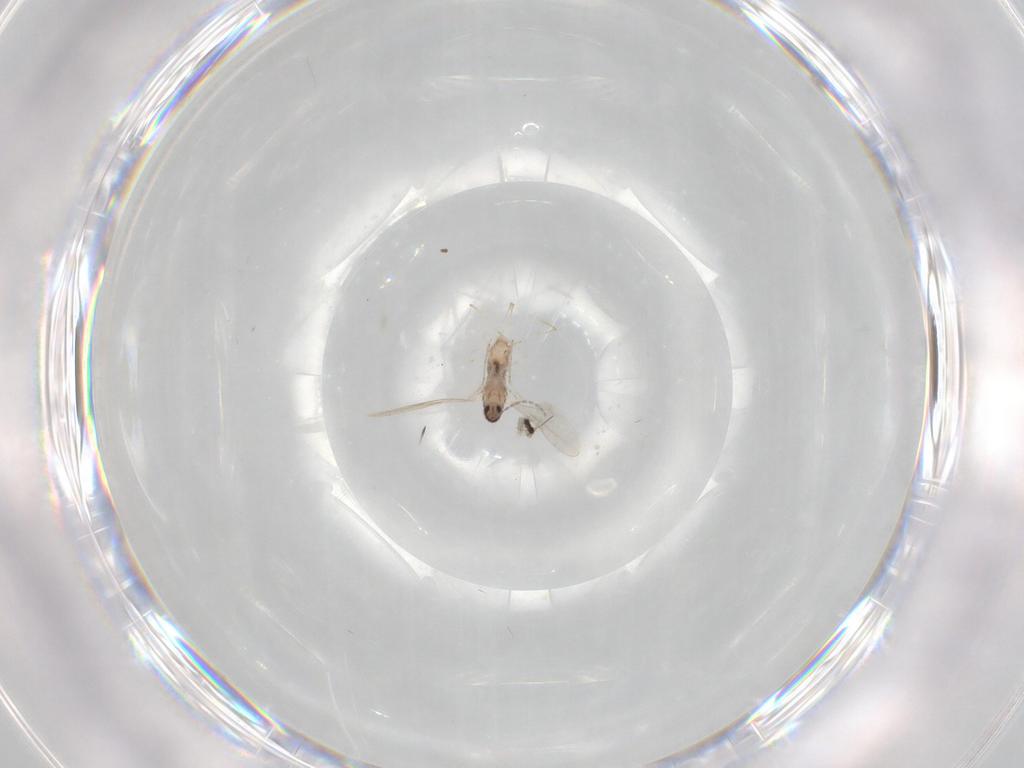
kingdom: Animalia
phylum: Arthropoda
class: Insecta
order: Diptera
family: Cecidomyiidae
